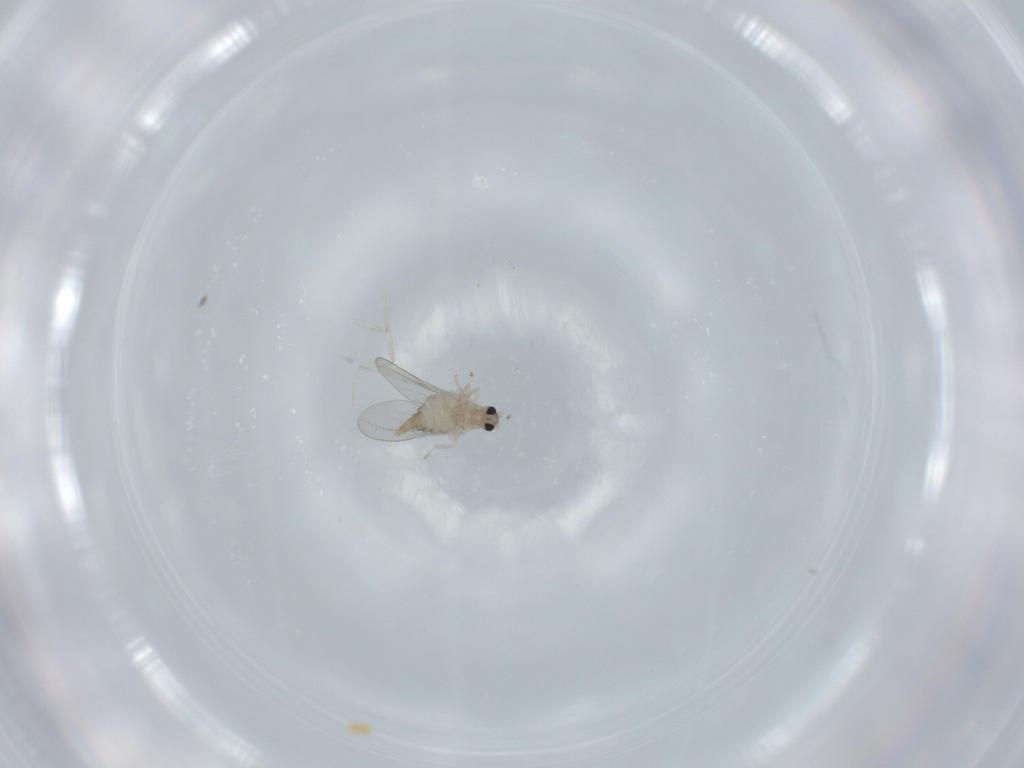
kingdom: Animalia
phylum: Arthropoda
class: Insecta
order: Diptera
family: Cecidomyiidae
